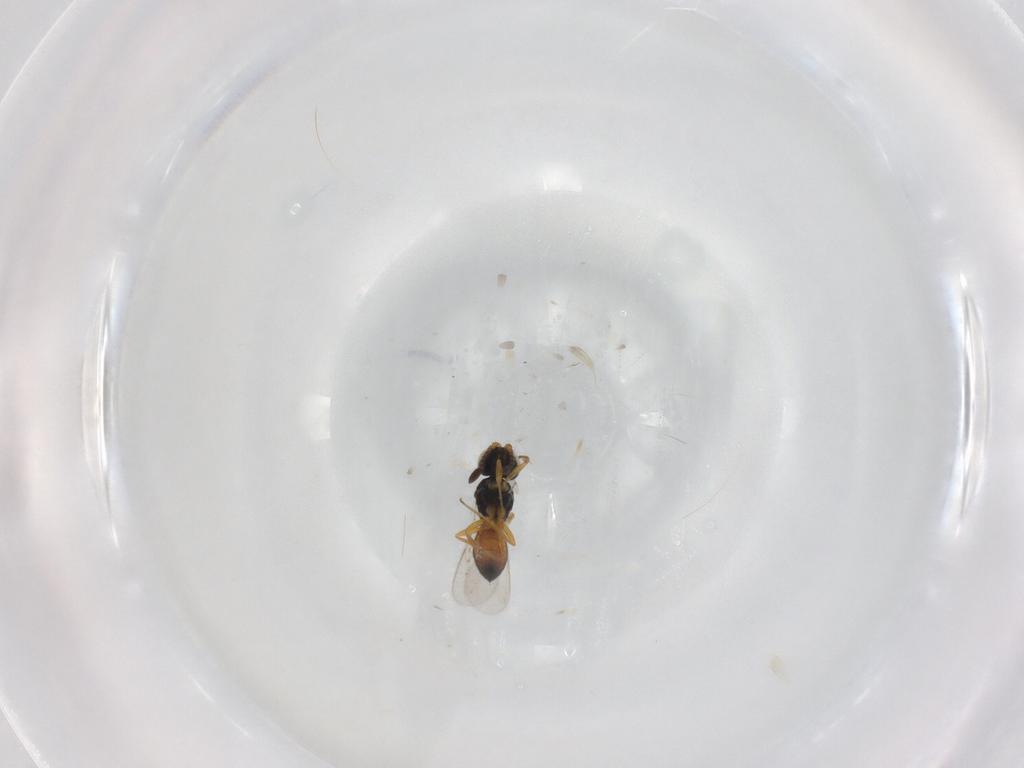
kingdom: Animalia
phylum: Arthropoda
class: Insecta
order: Hymenoptera
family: Scelionidae
